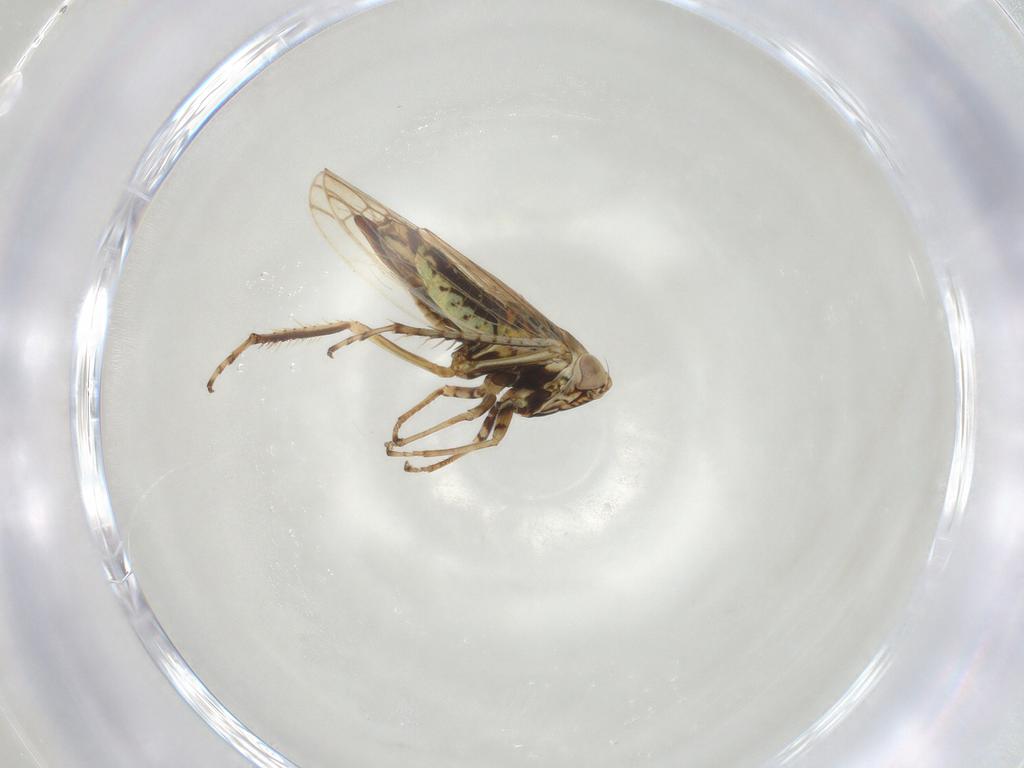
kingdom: Animalia
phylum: Arthropoda
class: Insecta
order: Hemiptera
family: Cicadellidae
